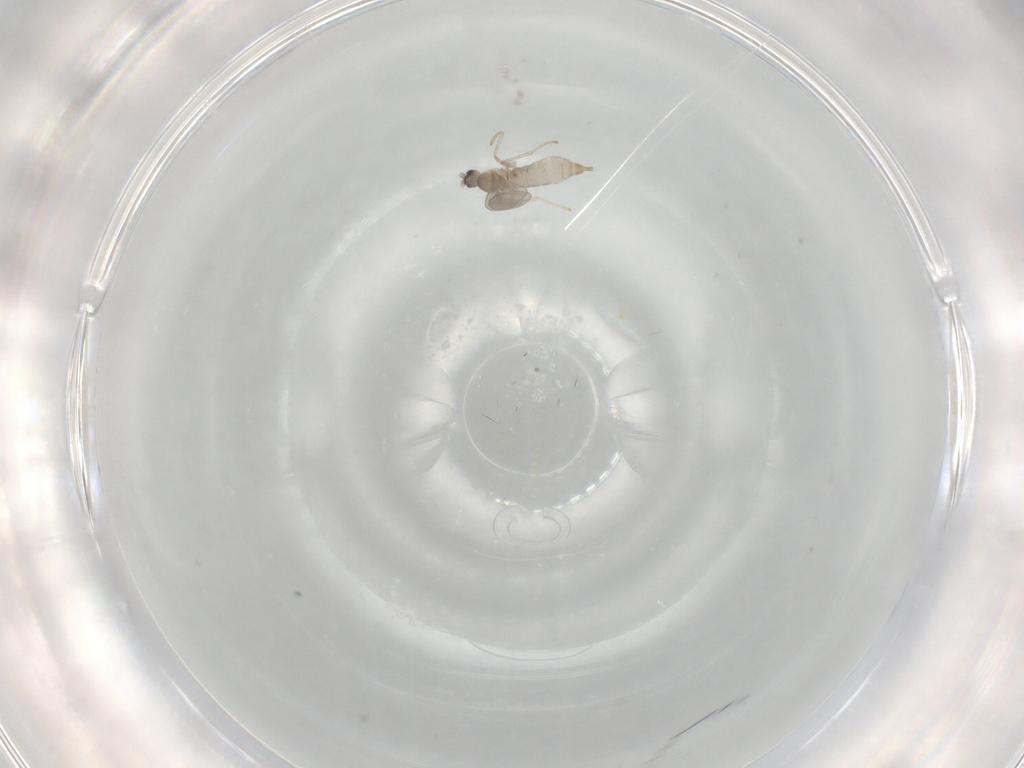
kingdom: Animalia
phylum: Arthropoda
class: Insecta
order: Diptera
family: Cecidomyiidae
